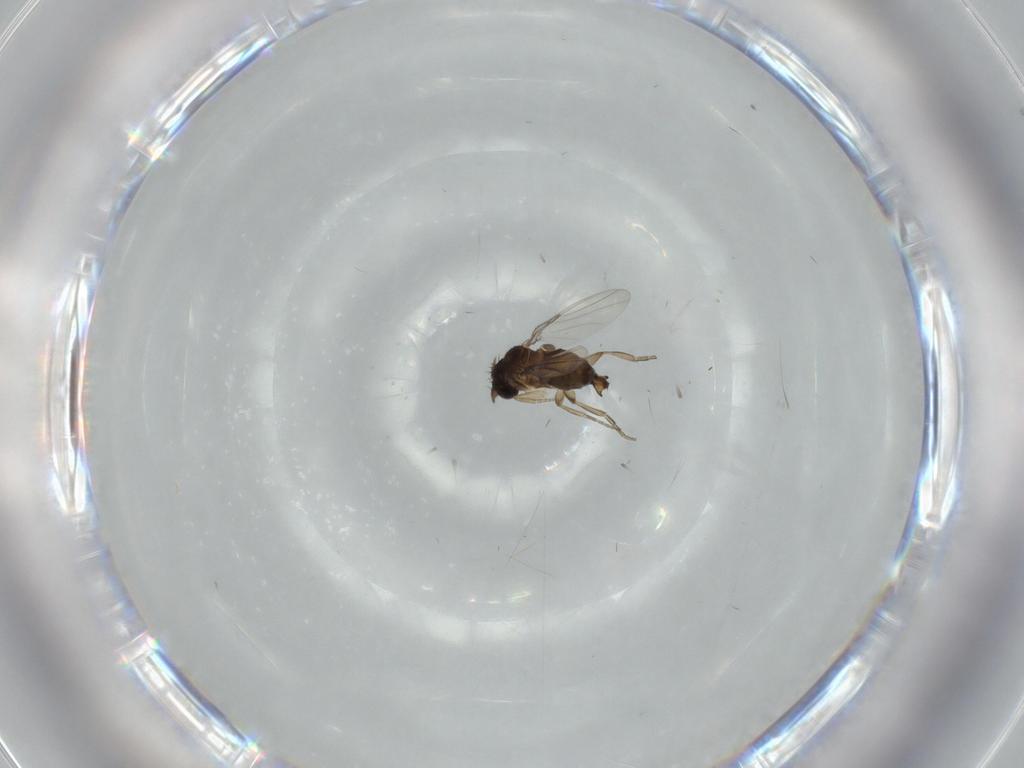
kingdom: Animalia
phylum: Arthropoda
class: Insecta
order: Diptera
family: Phoridae
